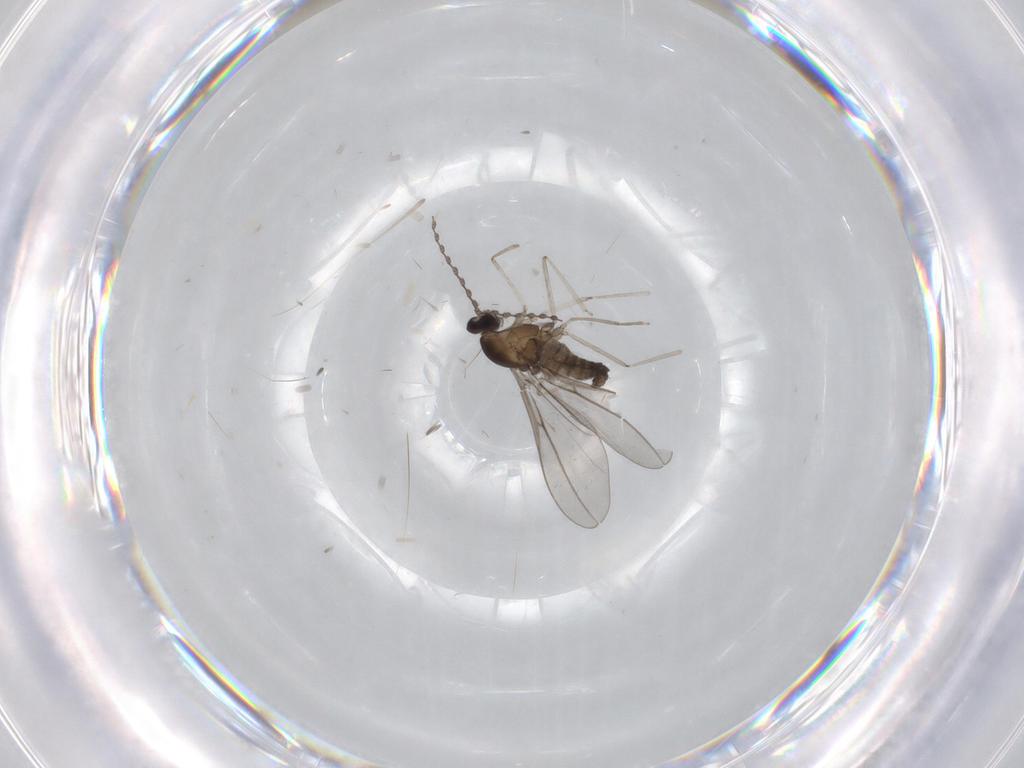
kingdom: Animalia
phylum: Arthropoda
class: Insecta
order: Diptera
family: Cecidomyiidae
